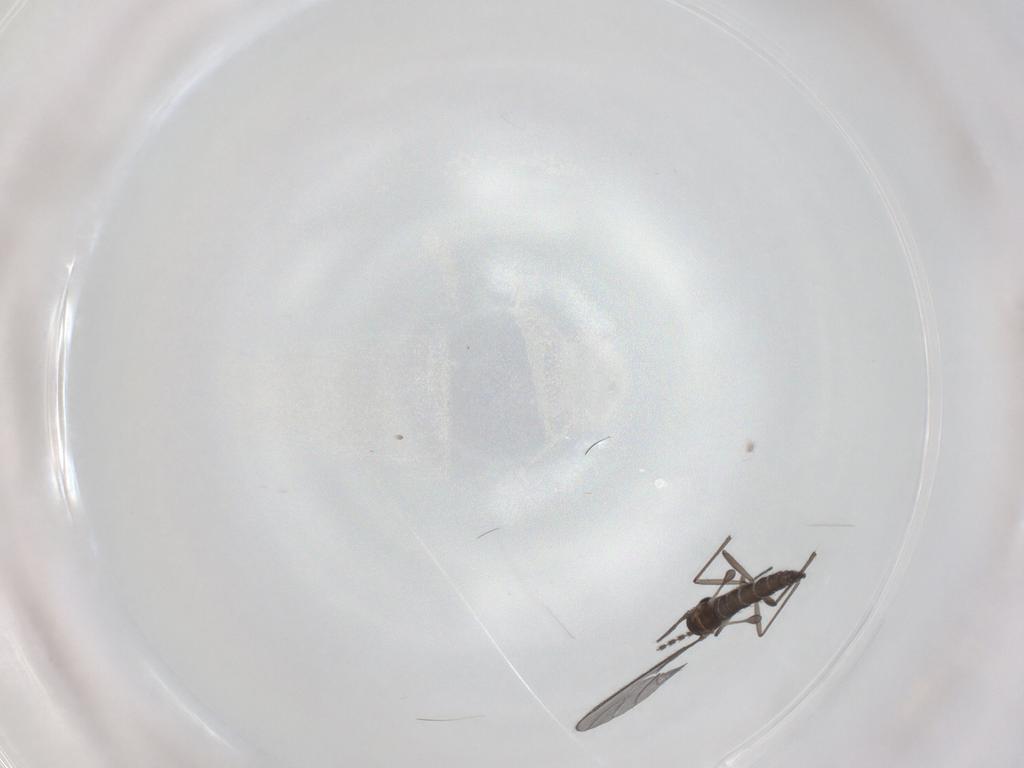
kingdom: Animalia
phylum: Arthropoda
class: Insecta
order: Diptera
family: Sciaridae
